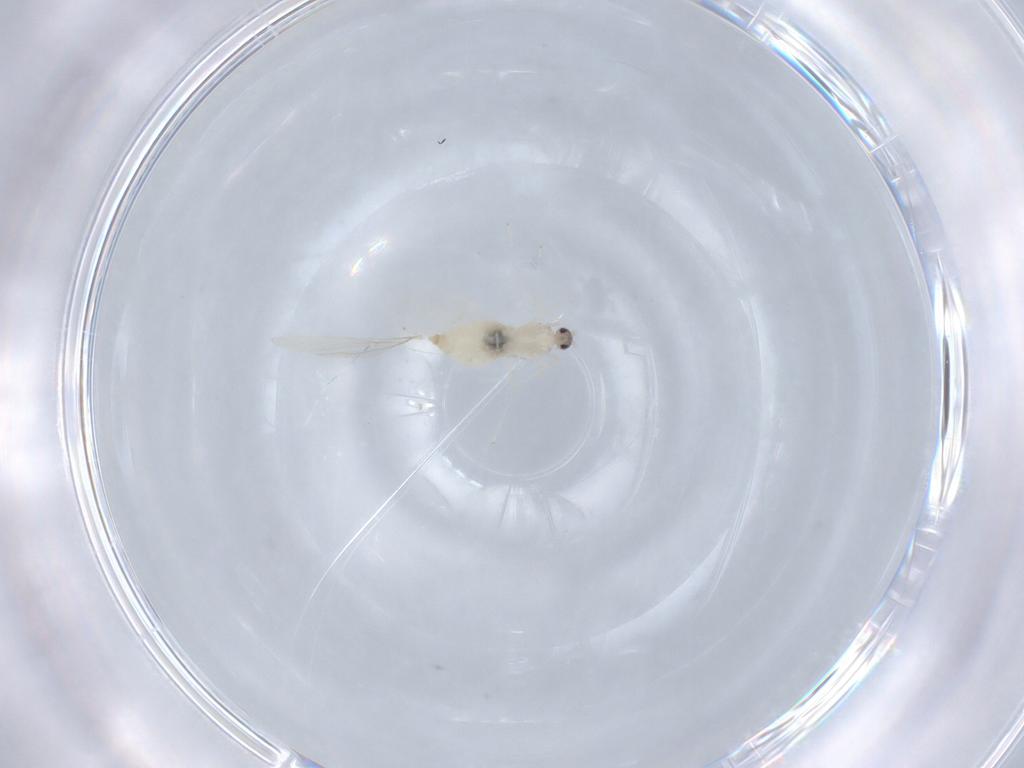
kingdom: Animalia
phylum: Arthropoda
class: Insecta
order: Diptera
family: Cecidomyiidae
